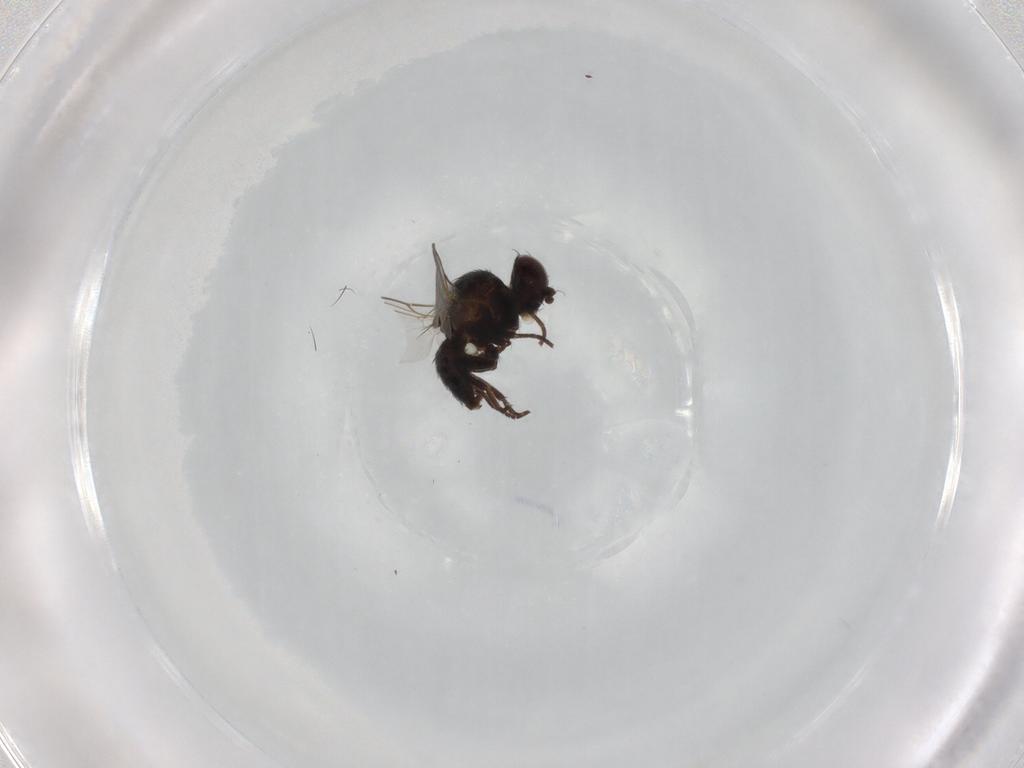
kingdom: Animalia
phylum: Arthropoda
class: Insecta
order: Diptera
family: Agromyzidae
